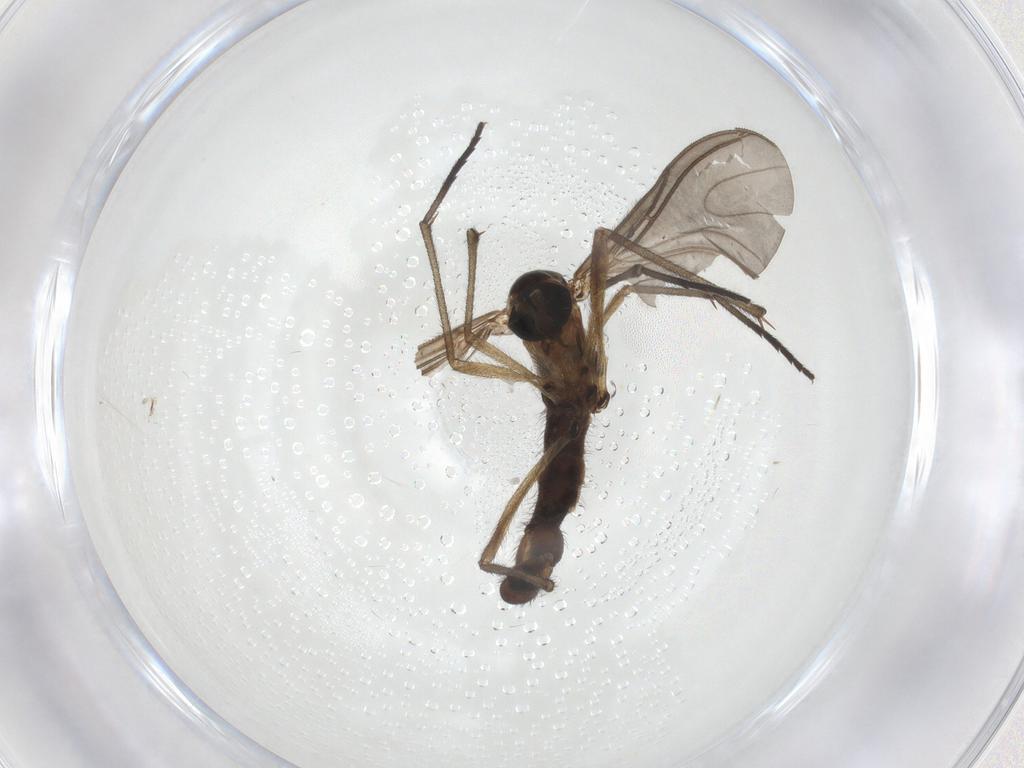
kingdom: Animalia
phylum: Arthropoda
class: Insecta
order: Diptera
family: Sciaridae
